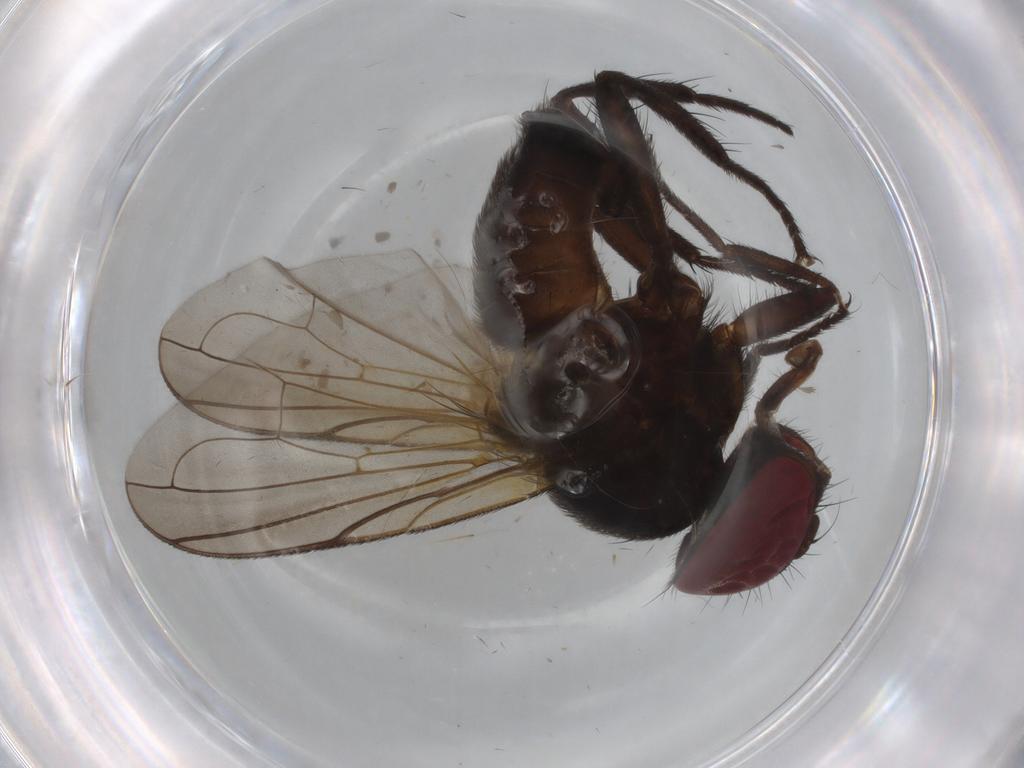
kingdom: Animalia
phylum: Arthropoda
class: Insecta
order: Diptera
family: Tachinidae
